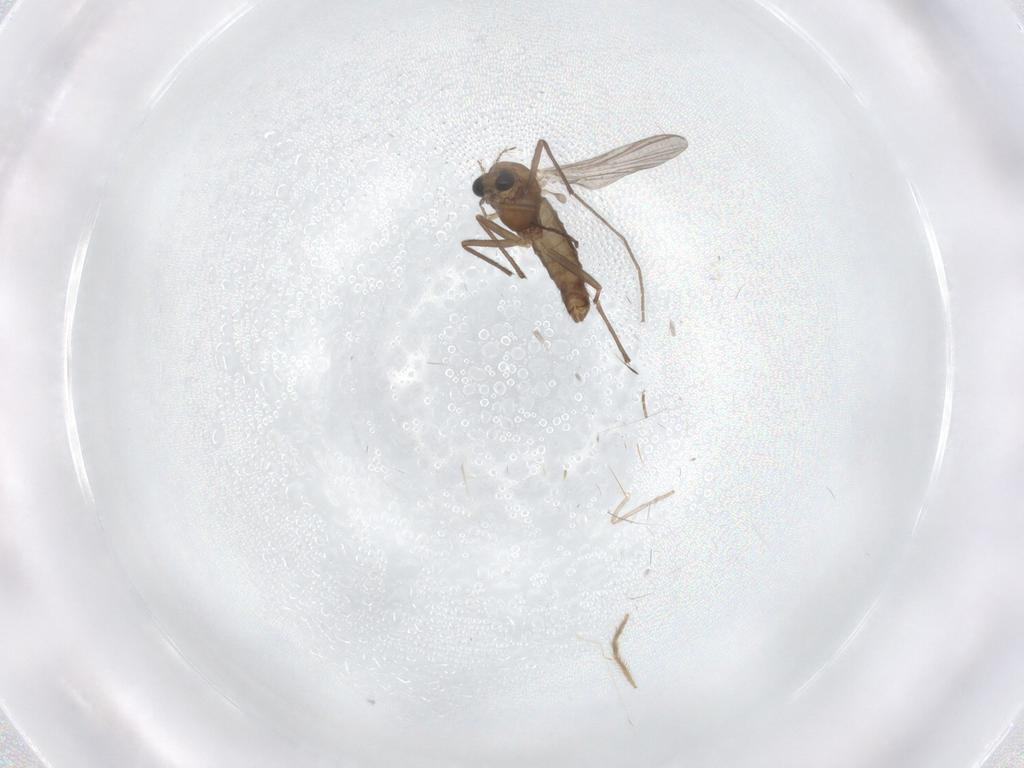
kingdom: Animalia
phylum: Arthropoda
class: Insecta
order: Diptera
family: Chironomidae
